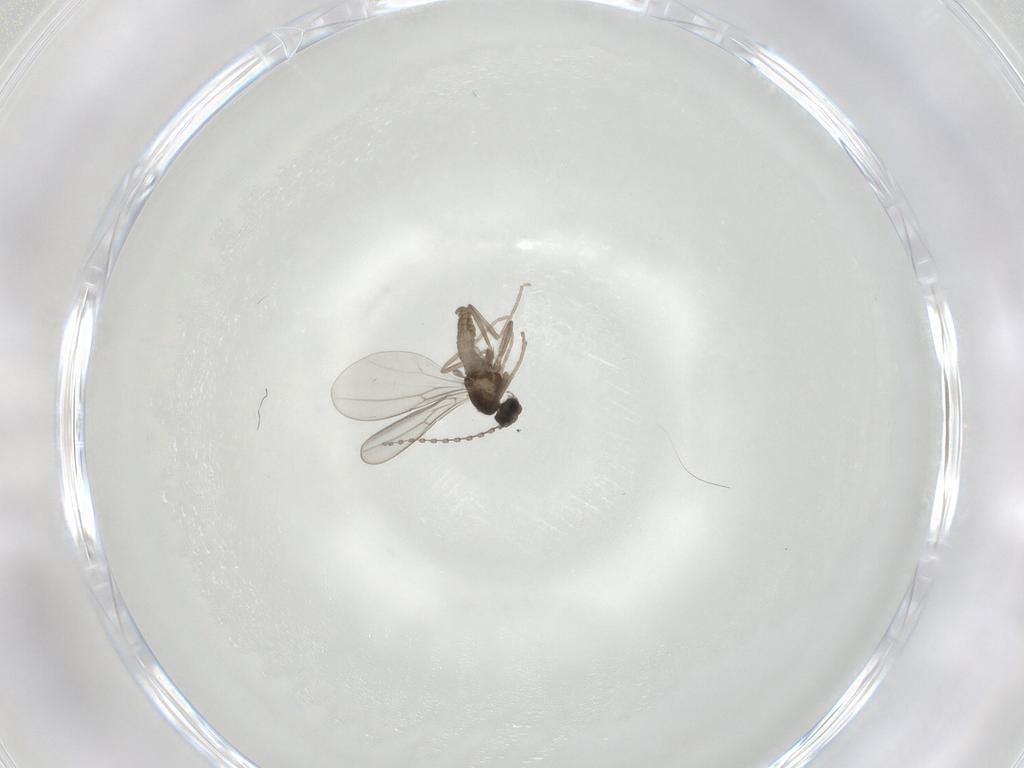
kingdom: Animalia
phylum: Arthropoda
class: Insecta
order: Diptera
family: Cecidomyiidae
